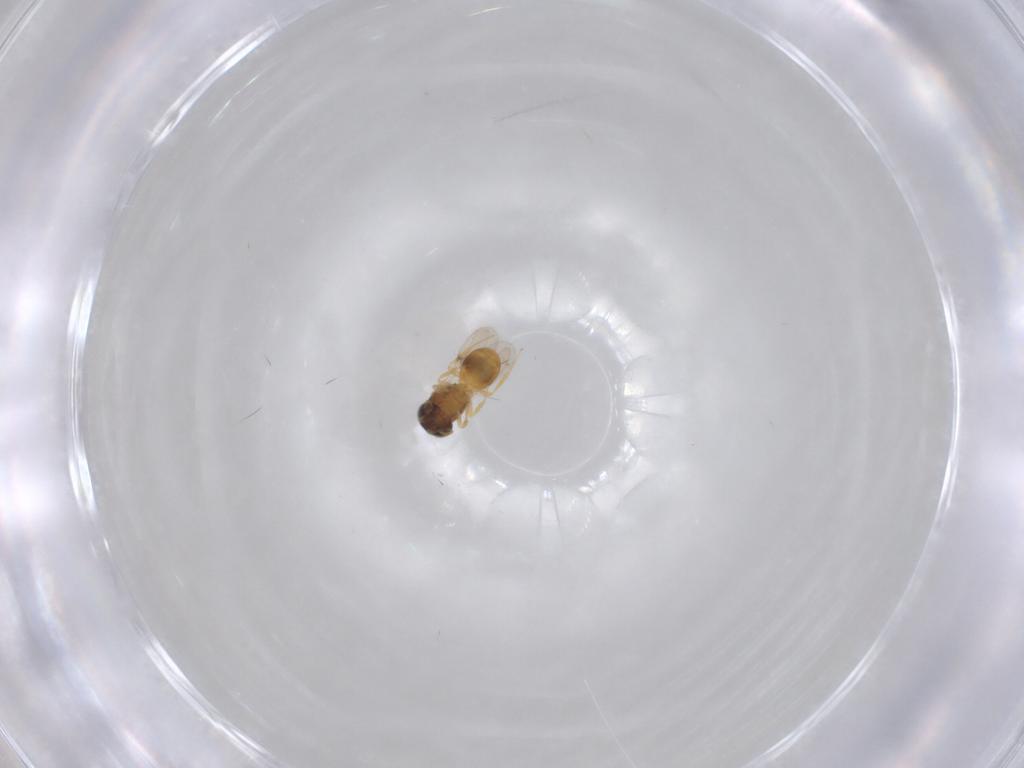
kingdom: Animalia
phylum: Arthropoda
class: Insecta
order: Hymenoptera
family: Scelionidae
